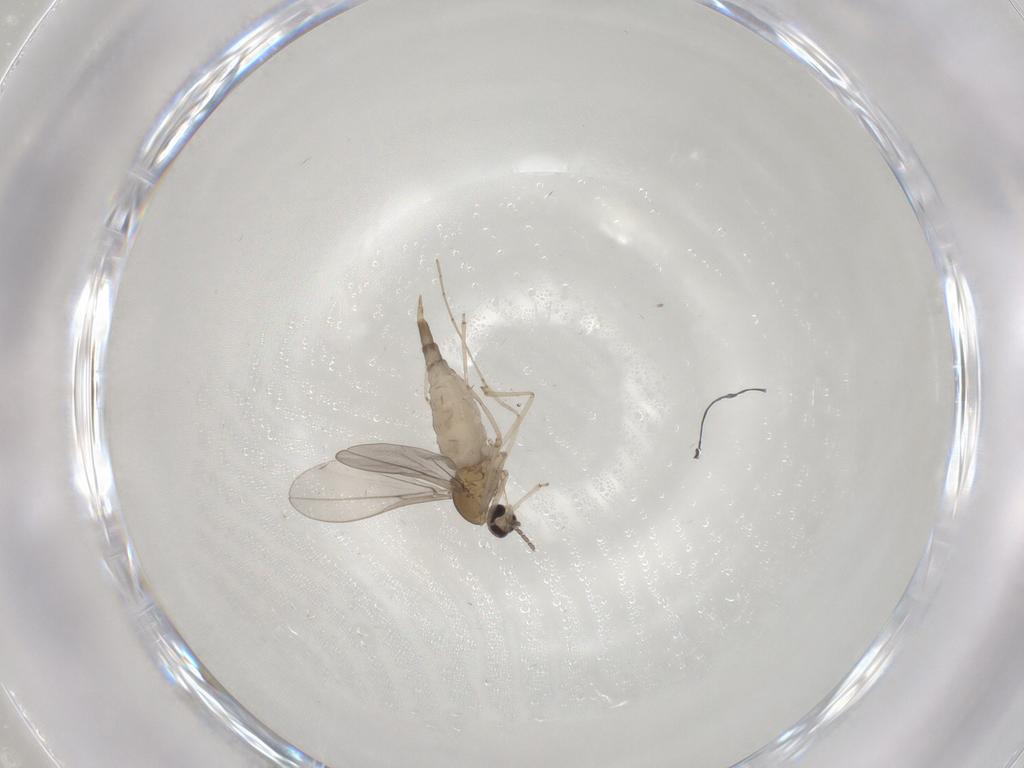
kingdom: Animalia
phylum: Arthropoda
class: Insecta
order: Diptera
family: Cecidomyiidae
